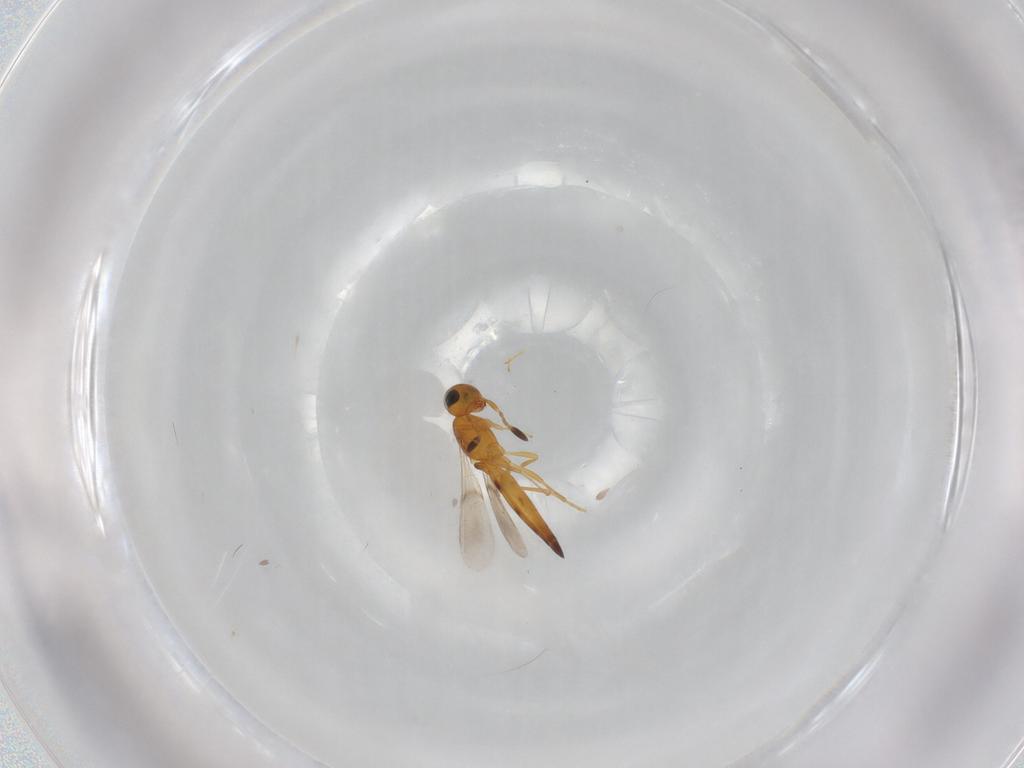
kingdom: Animalia
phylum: Arthropoda
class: Insecta
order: Hymenoptera
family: Scelionidae
